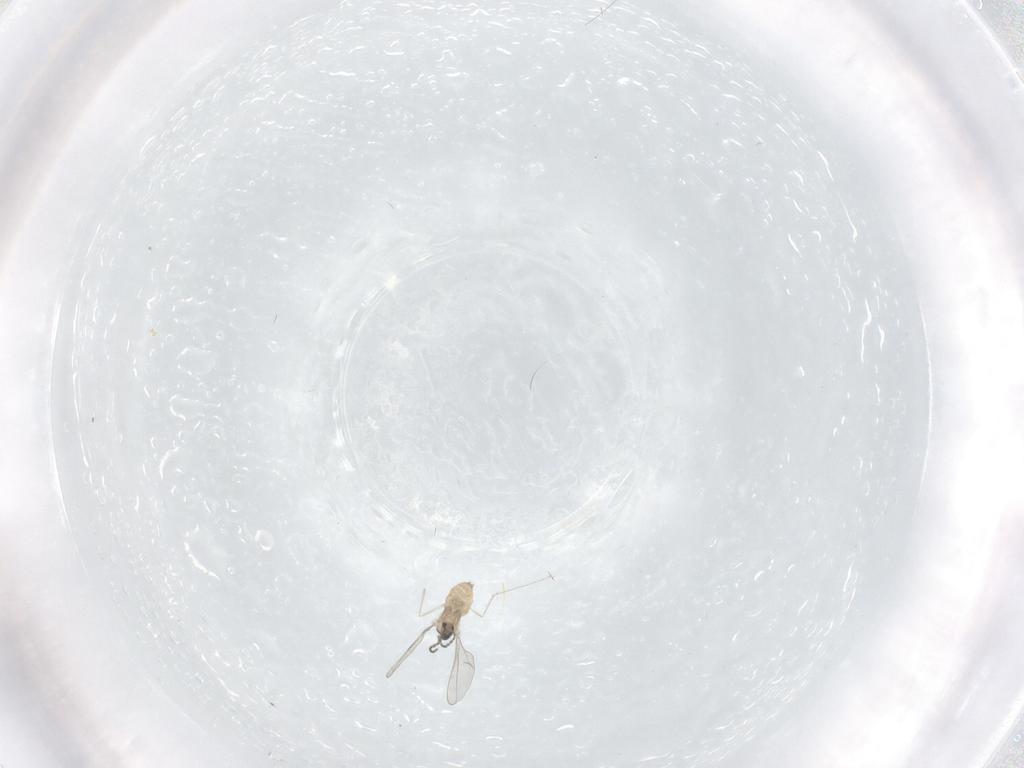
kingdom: Animalia
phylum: Arthropoda
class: Insecta
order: Diptera
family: Cecidomyiidae
